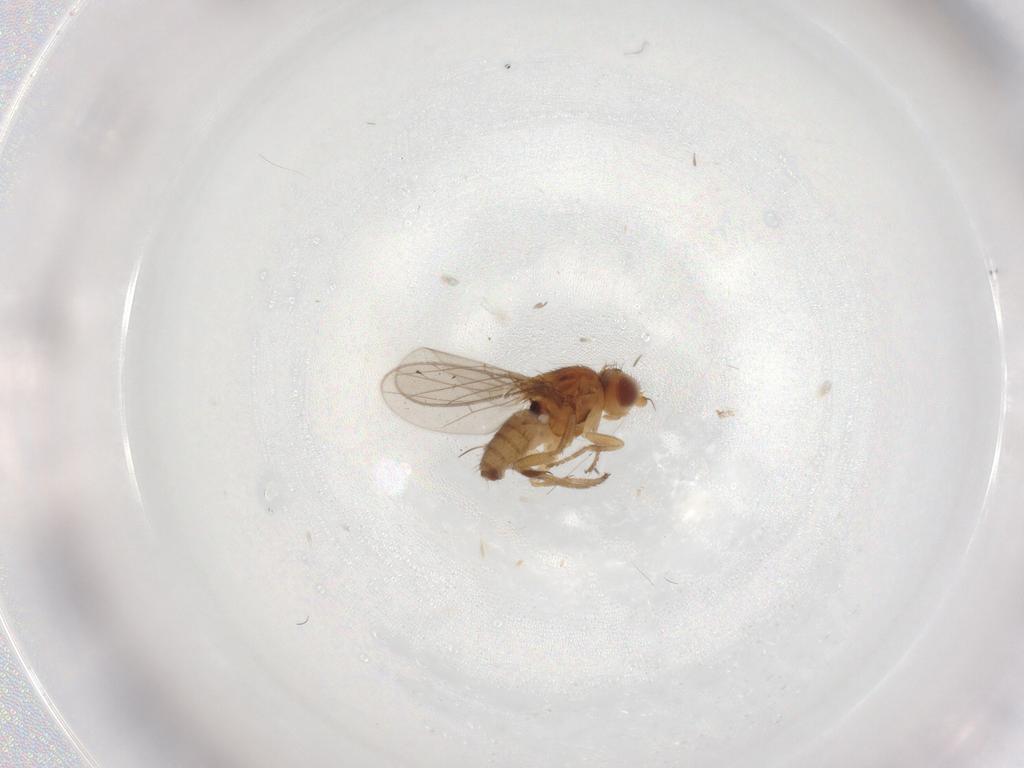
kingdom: Animalia
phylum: Arthropoda
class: Insecta
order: Diptera
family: Chloropidae
